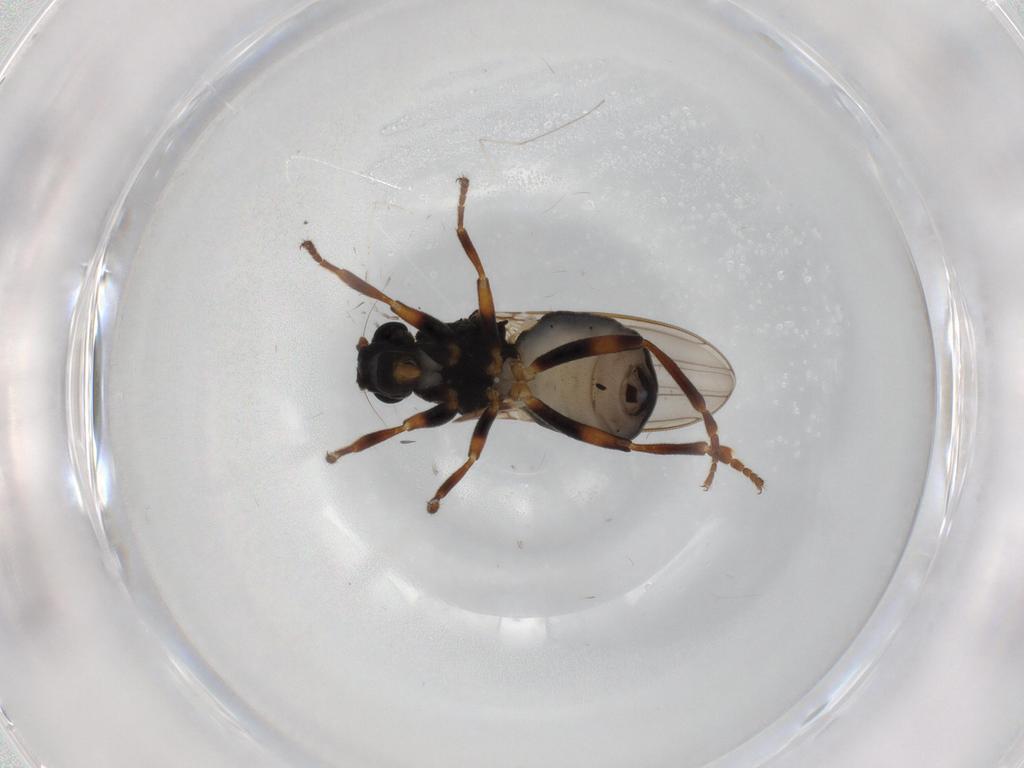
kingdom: Animalia
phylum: Arthropoda
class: Insecta
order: Diptera
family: Sphaeroceridae
